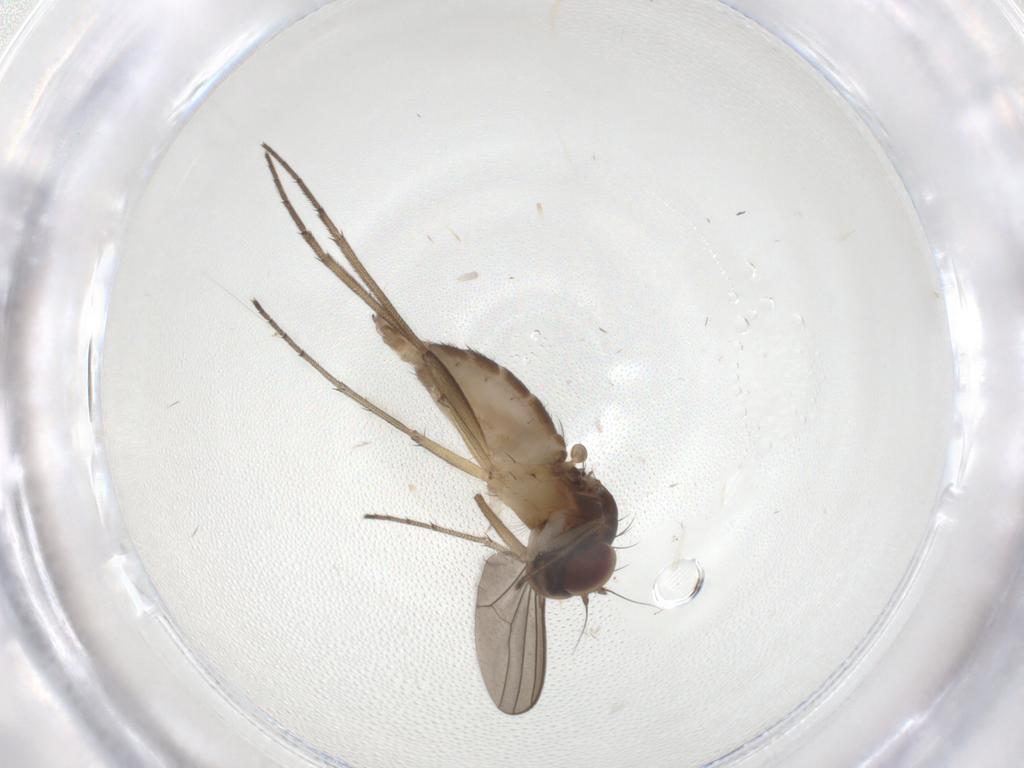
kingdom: Animalia
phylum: Arthropoda
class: Insecta
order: Diptera
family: Dolichopodidae
